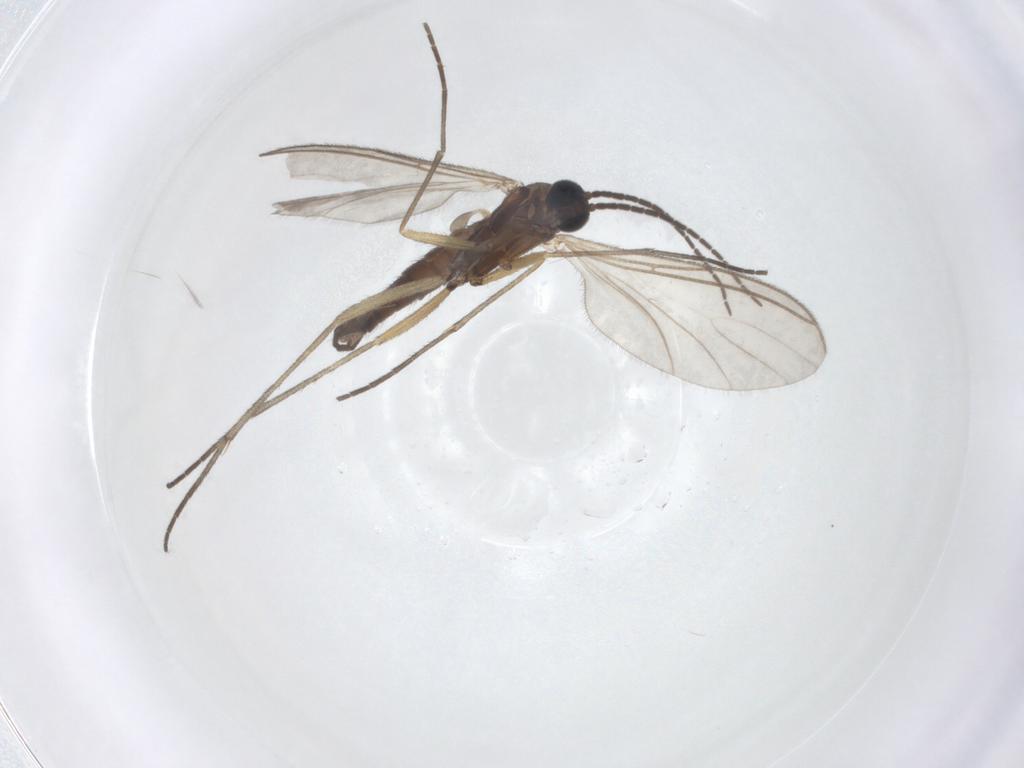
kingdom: Animalia
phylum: Arthropoda
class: Insecta
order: Diptera
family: Sciaridae
